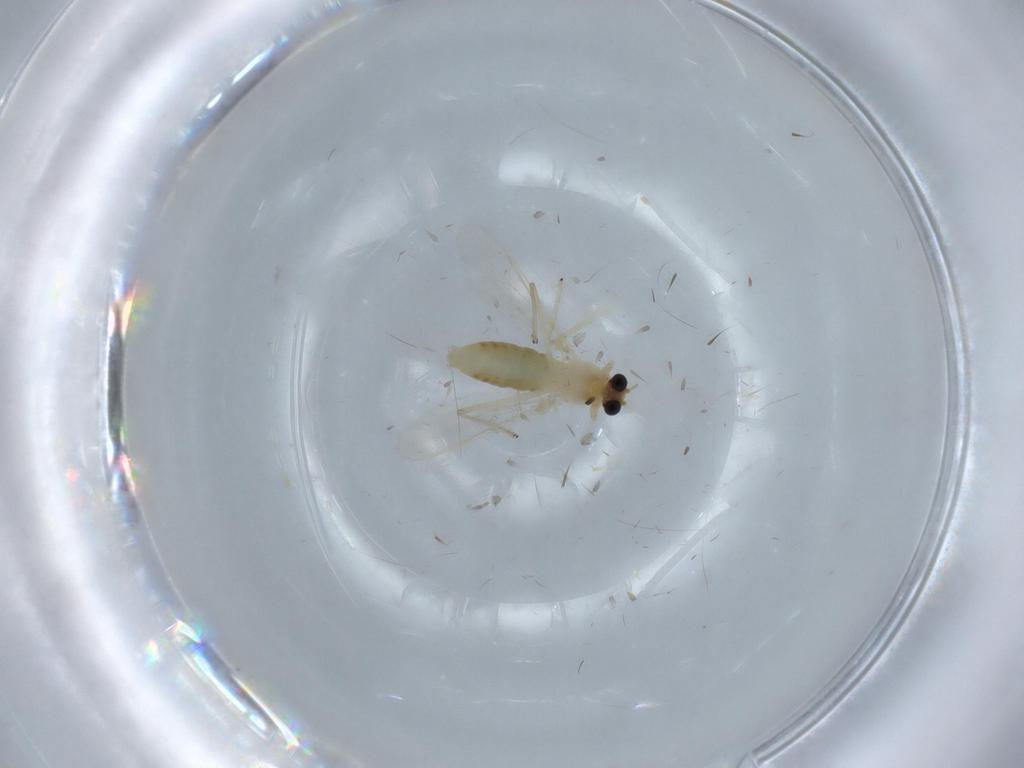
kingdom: Animalia
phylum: Arthropoda
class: Insecta
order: Diptera
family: Chironomidae
